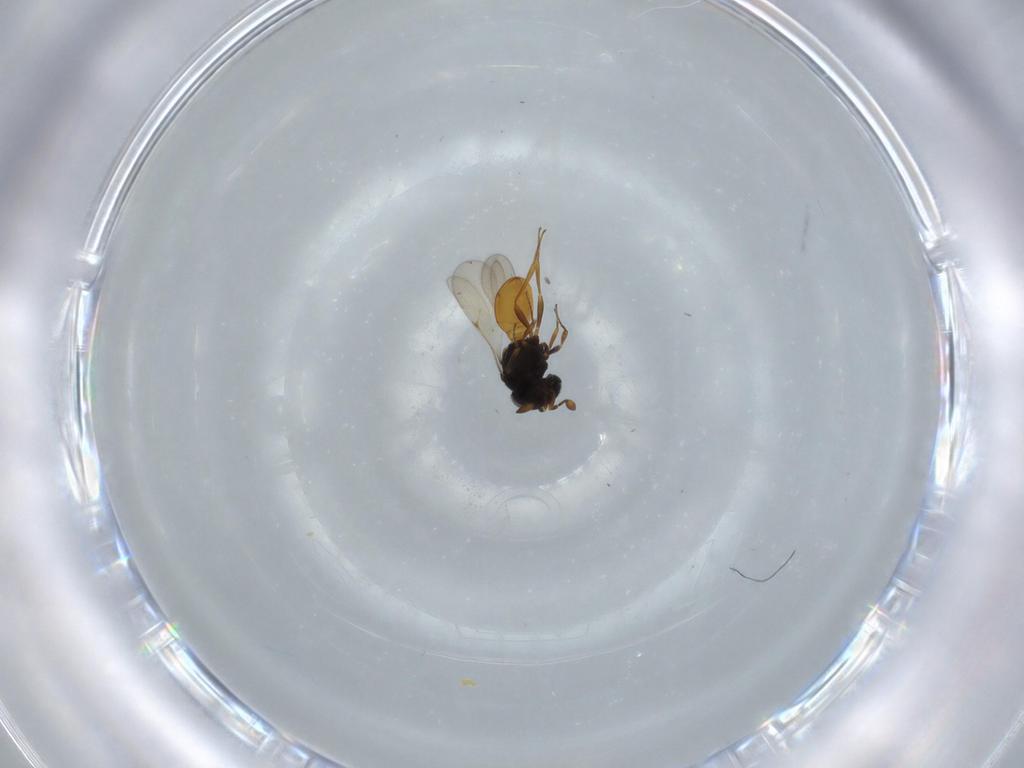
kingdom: Animalia
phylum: Arthropoda
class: Insecta
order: Hymenoptera
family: Scelionidae
